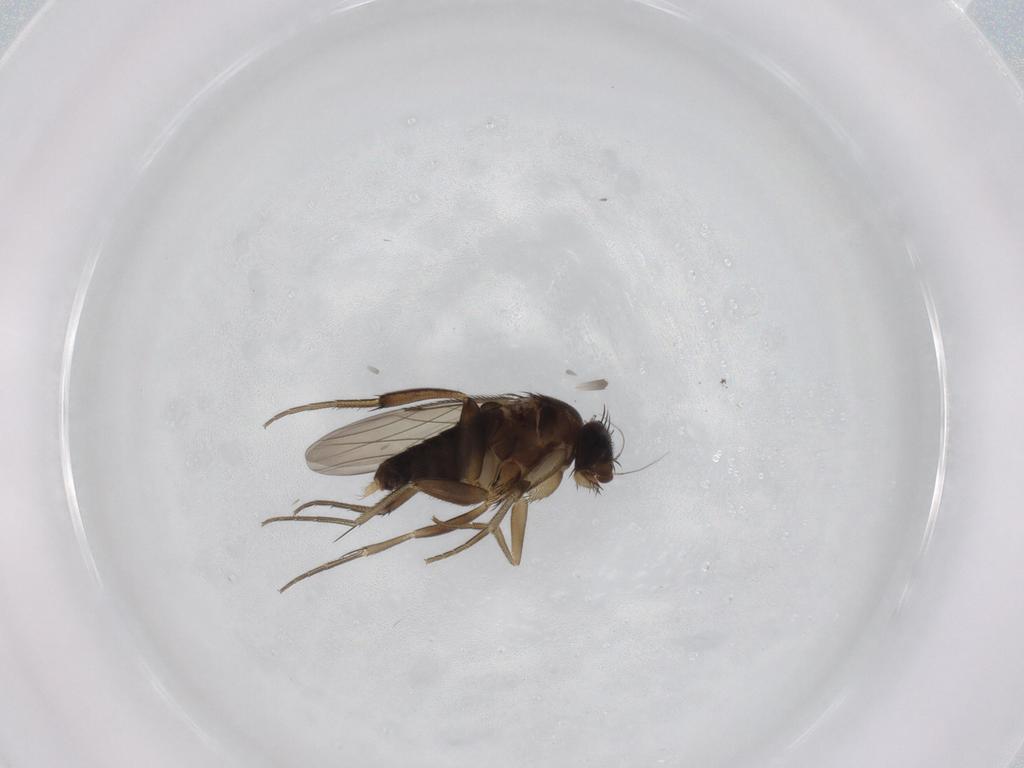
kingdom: Animalia
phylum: Arthropoda
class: Insecta
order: Diptera
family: Phoridae
